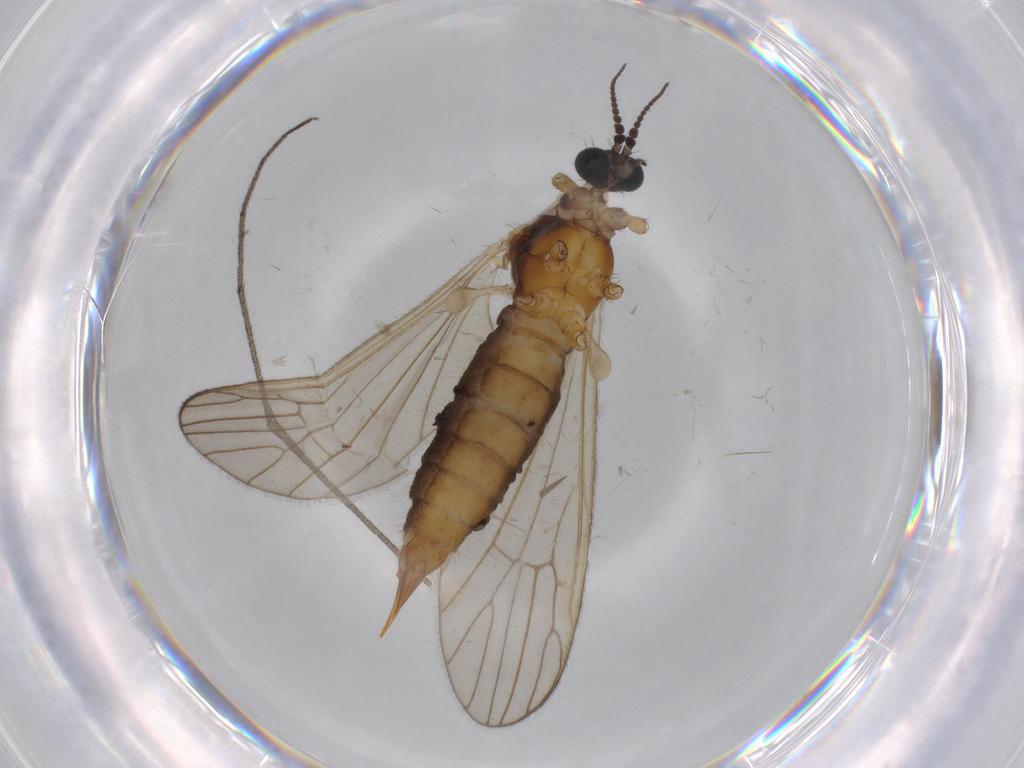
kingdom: Animalia
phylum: Arthropoda
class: Insecta
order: Diptera
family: Agromyzidae
